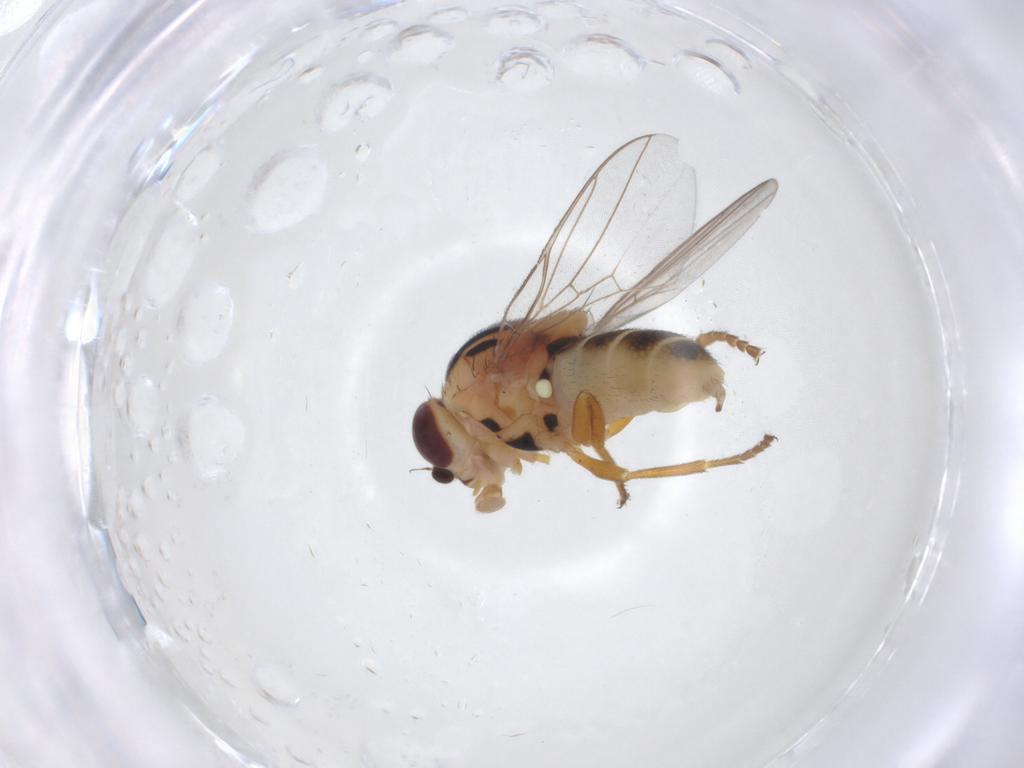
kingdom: Animalia
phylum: Arthropoda
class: Insecta
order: Diptera
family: Chloropidae
